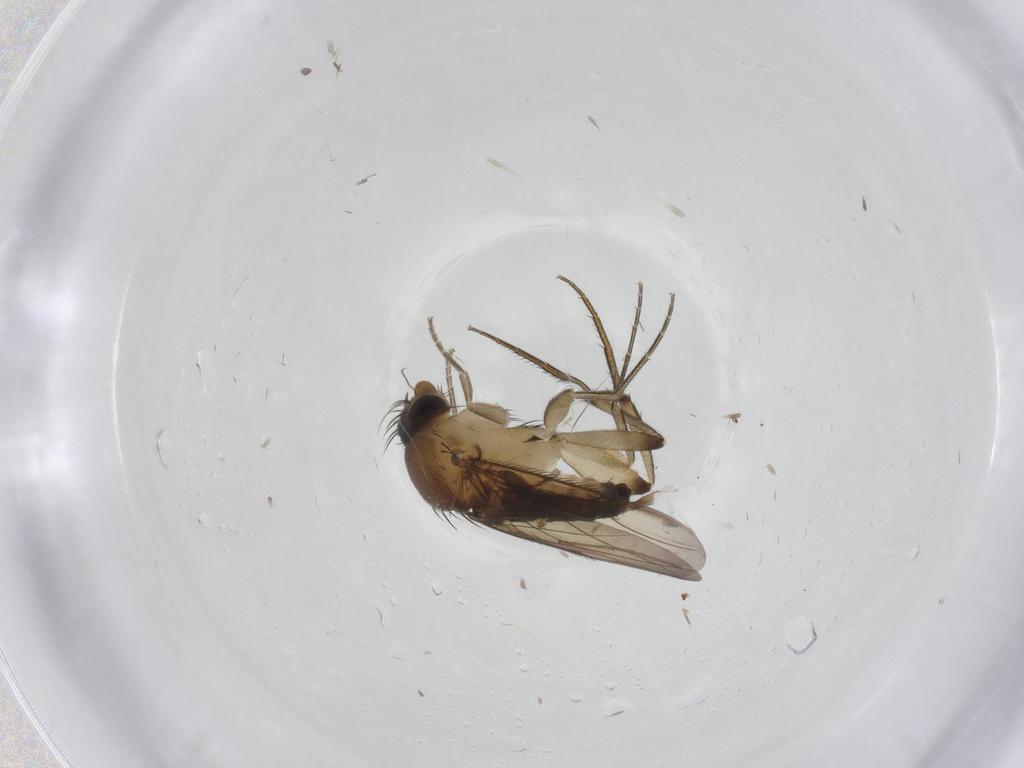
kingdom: Animalia
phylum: Arthropoda
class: Insecta
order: Diptera
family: Phoridae
